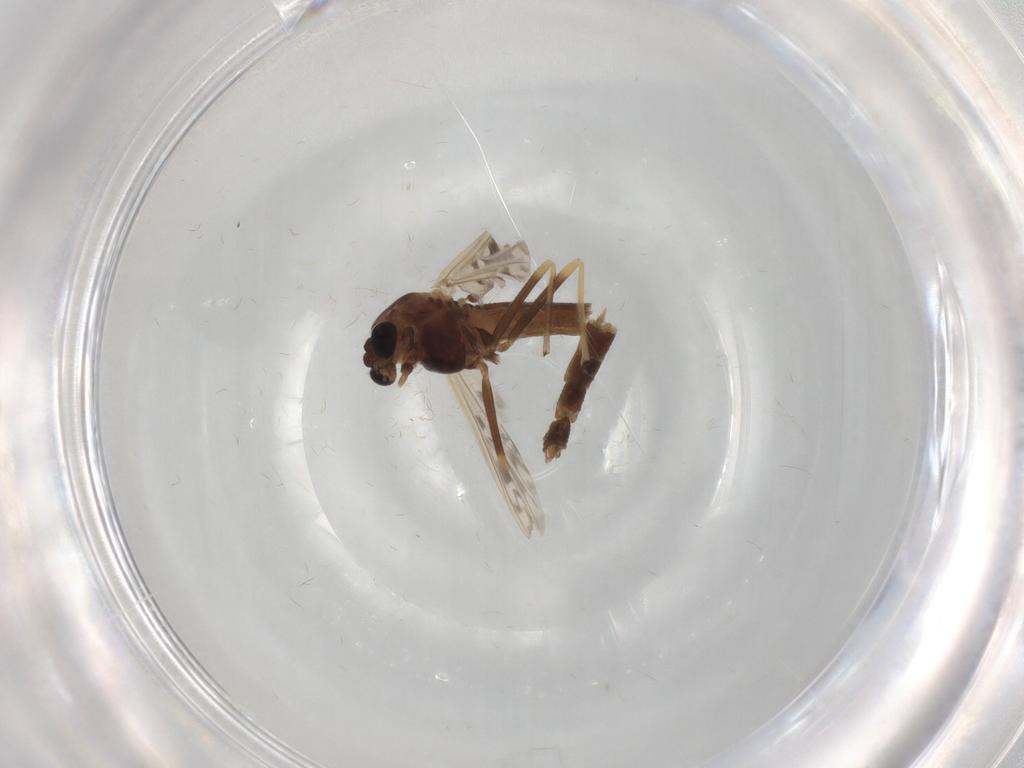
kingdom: Animalia
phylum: Arthropoda
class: Insecta
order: Diptera
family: Chironomidae
